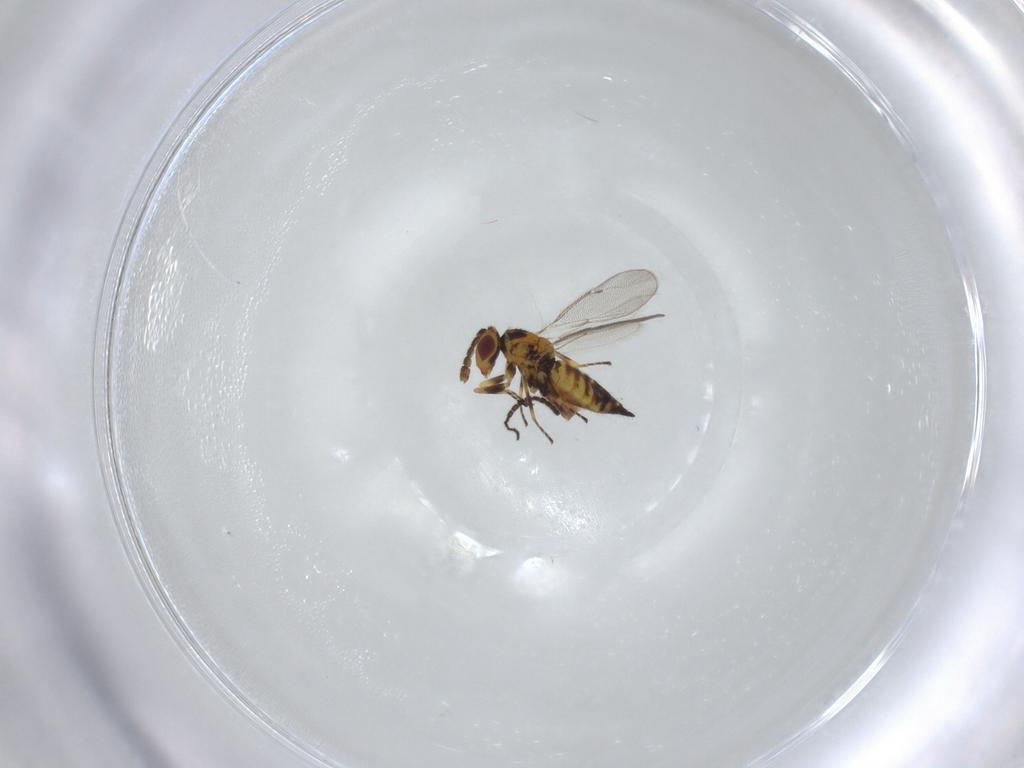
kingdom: Animalia
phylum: Arthropoda
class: Insecta
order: Hymenoptera
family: Eulophidae
